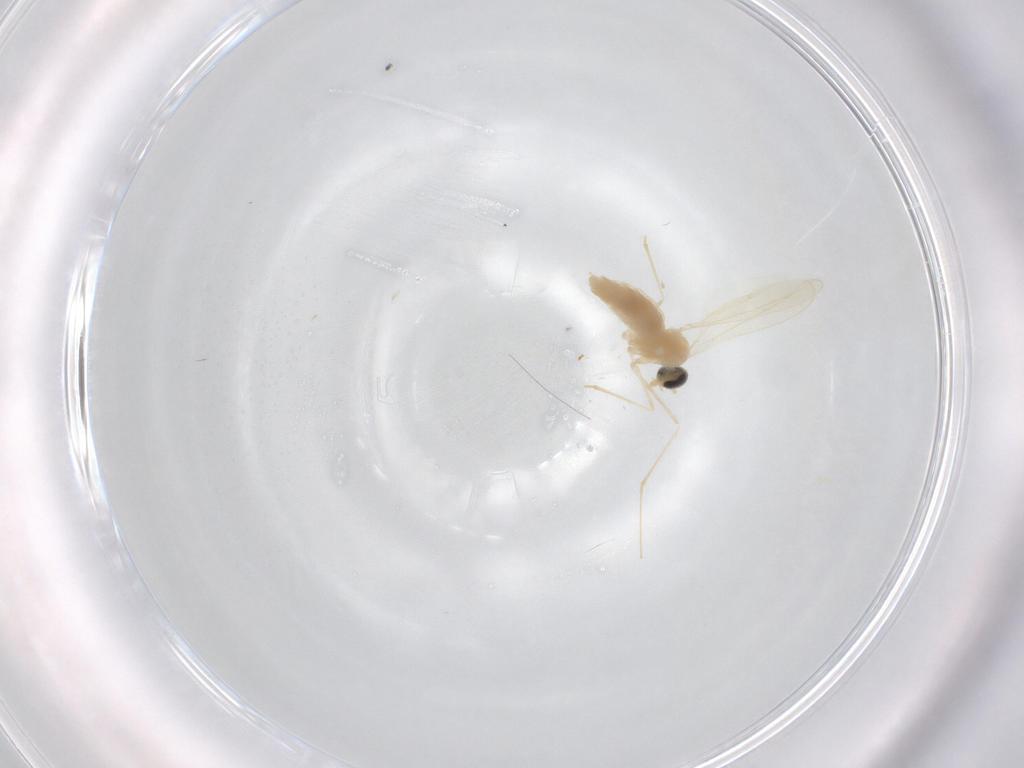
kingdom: Animalia
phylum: Arthropoda
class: Insecta
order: Diptera
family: Cecidomyiidae
